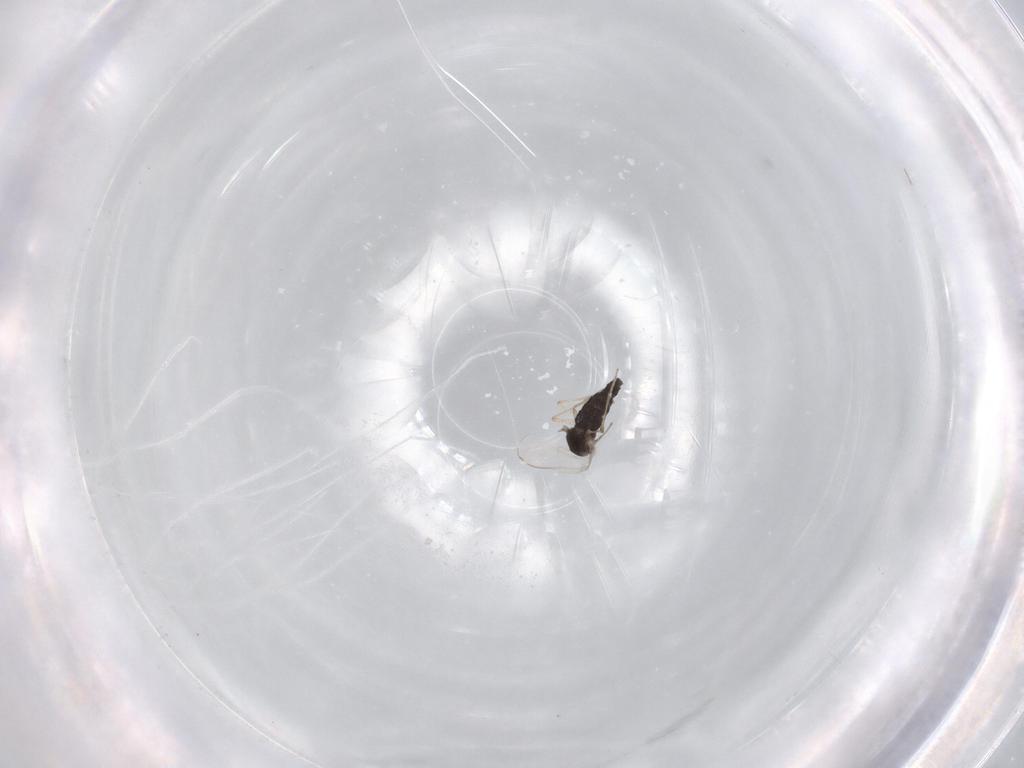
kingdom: Animalia
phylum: Arthropoda
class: Insecta
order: Diptera
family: Chironomidae
